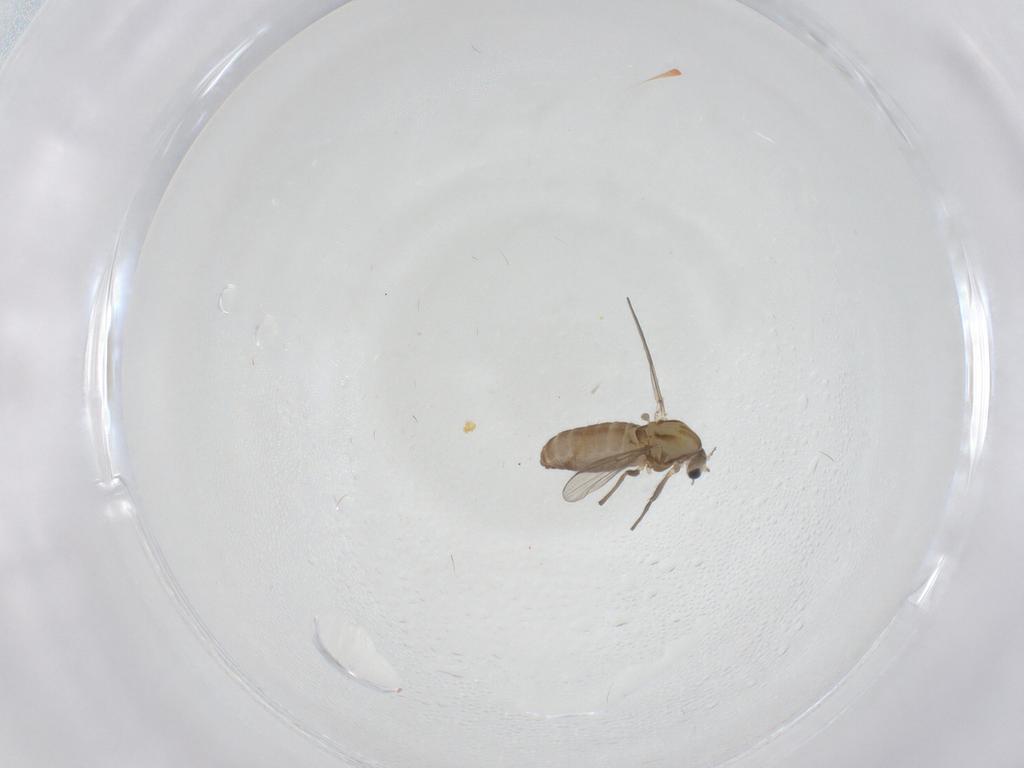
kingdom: Animalia
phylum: Arthropoda
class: Insecta
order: Diptera
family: Chironomidae
